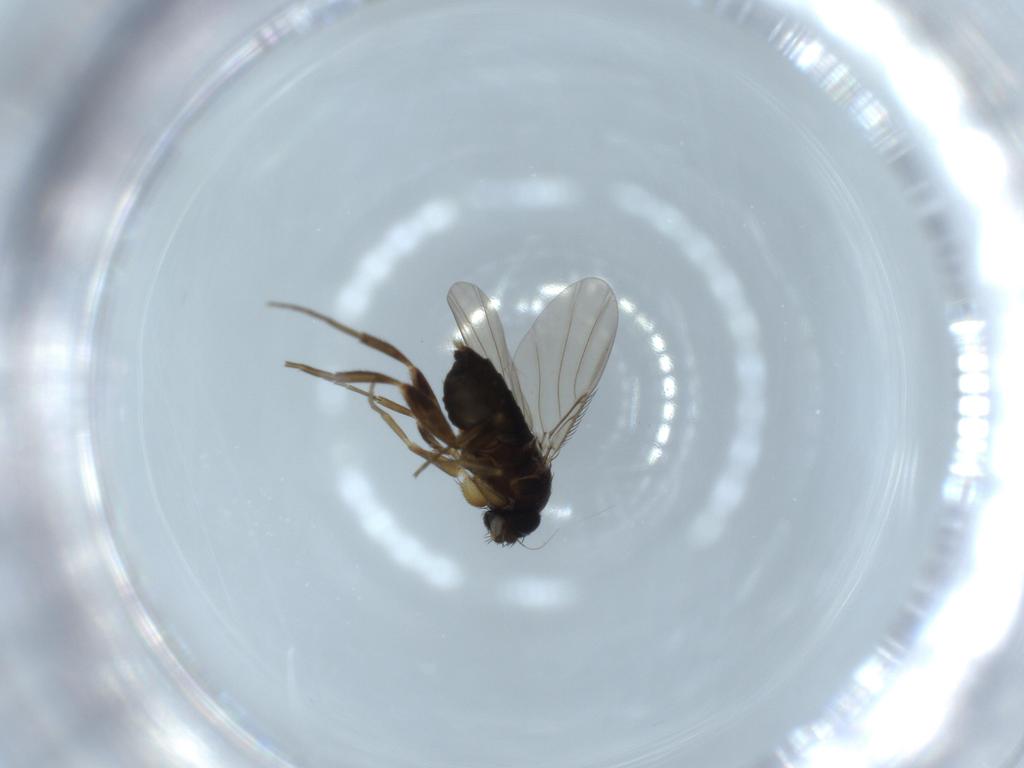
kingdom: Animalia
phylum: Arthropoda
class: Insecta
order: Diptera
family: Phoridae
